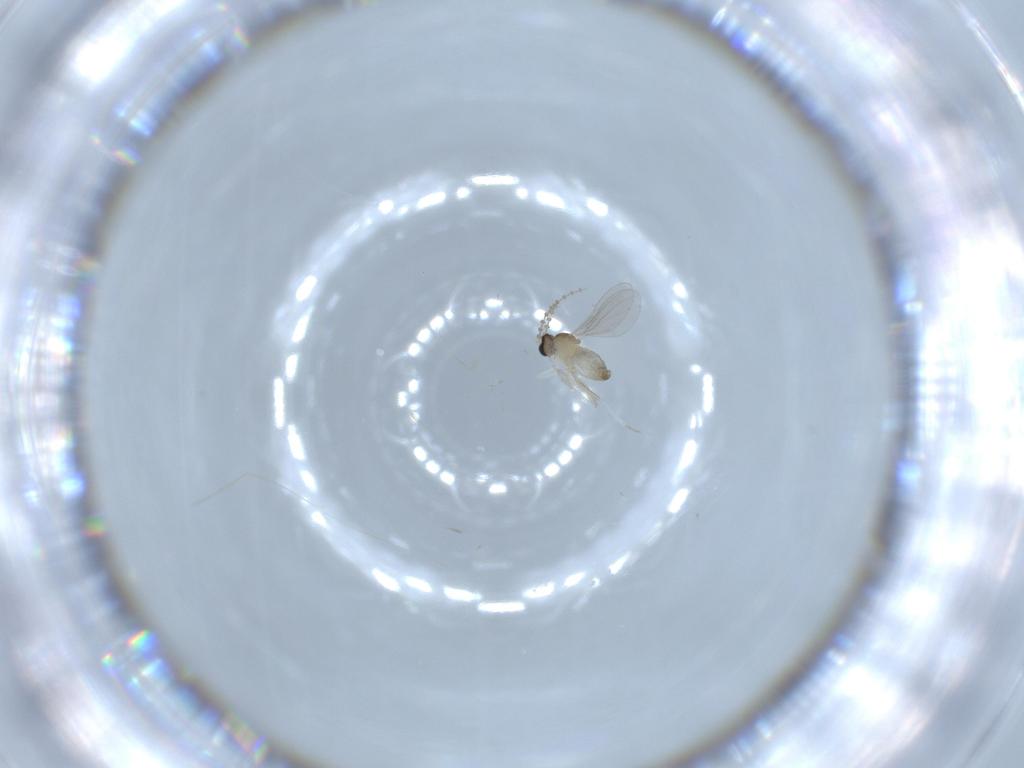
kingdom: Animalia
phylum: Arthropoda
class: Insecta
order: Diptera
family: Cecidomyiidae
